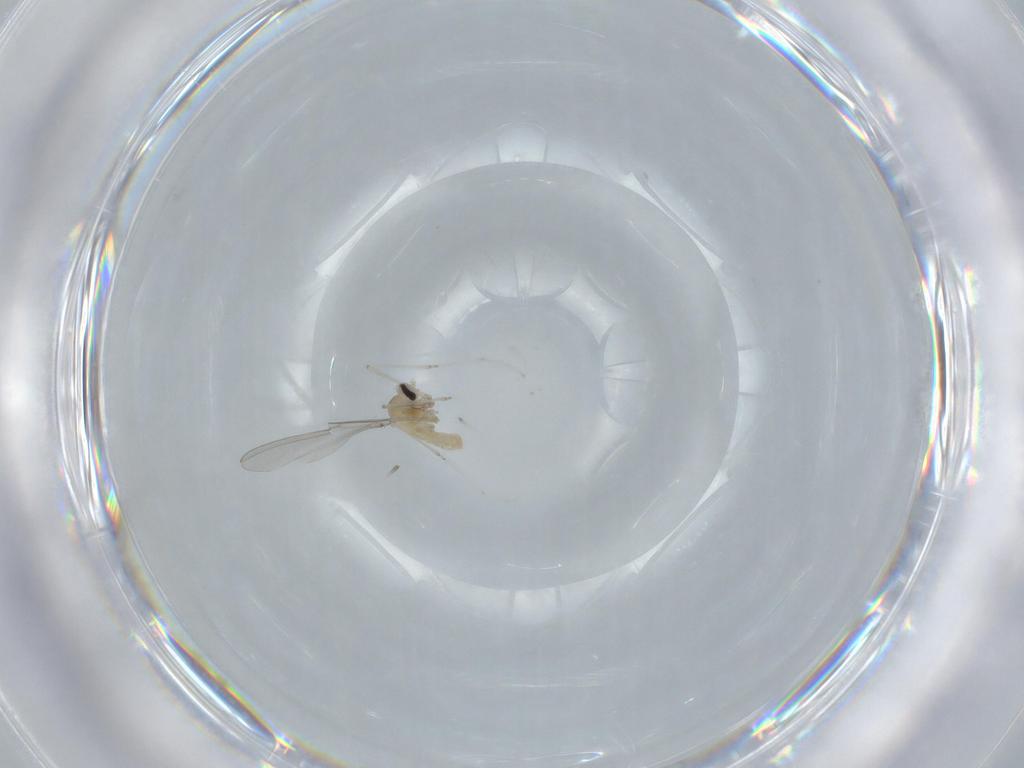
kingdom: Animalia
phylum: Arthropoda
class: Insecta
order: Diptera
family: Cecidomyiidae
